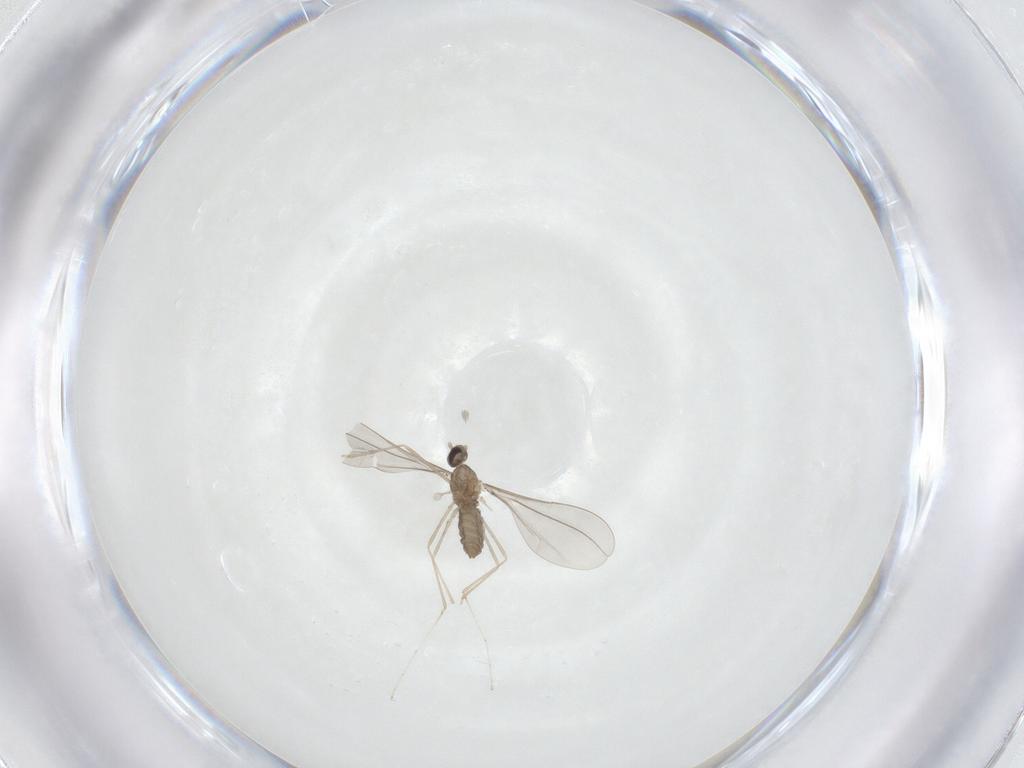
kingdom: Animalia
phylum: Arthropoda
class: Insecta
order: Diptera
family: Cecidomyiidae
